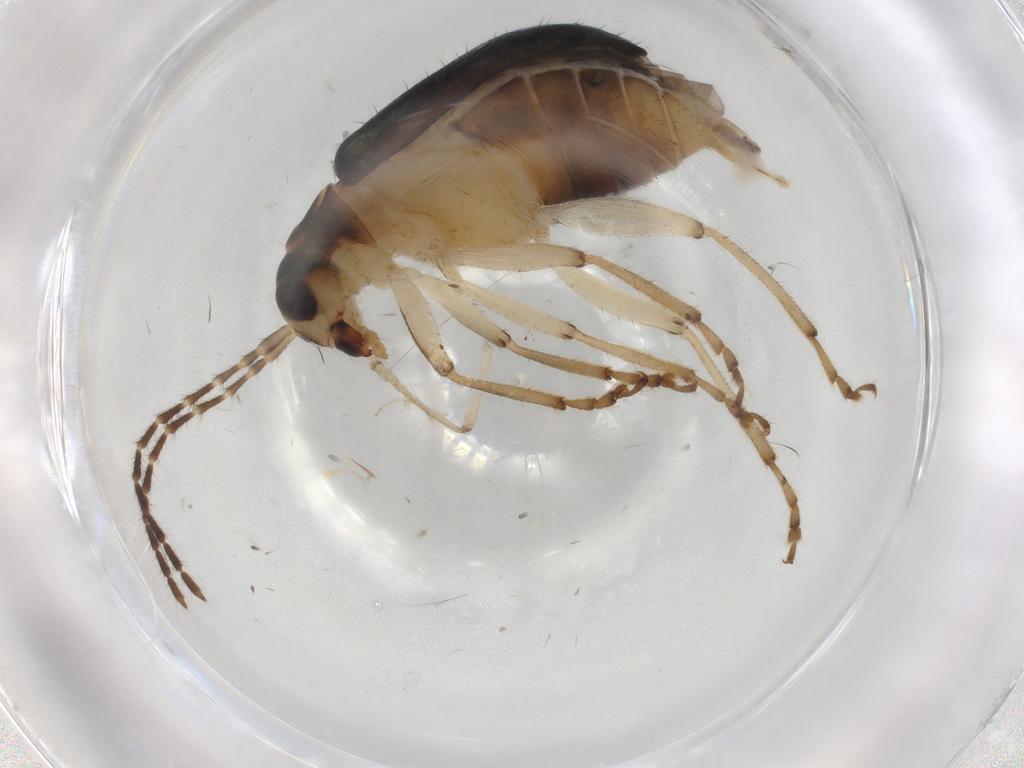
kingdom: Animalia
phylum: Arthropoda
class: Insecta
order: Coleoptera
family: Chrysomelidae
